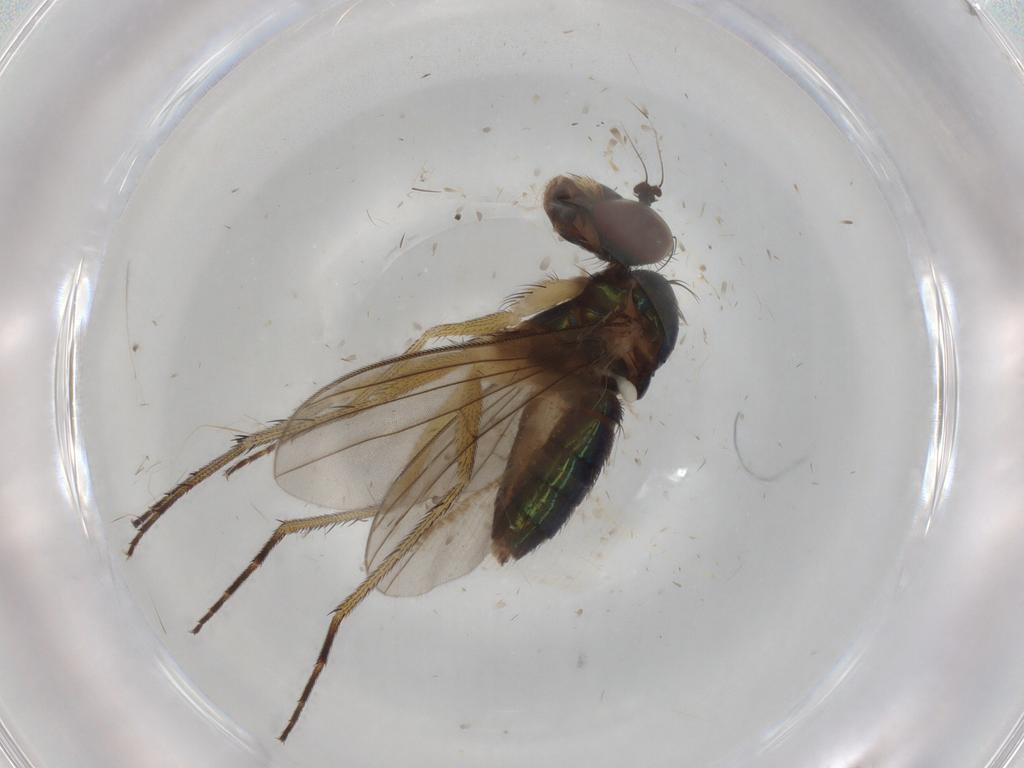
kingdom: Animalia
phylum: Arthropoda
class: Insecta
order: Diptera
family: Dolichopodidae
